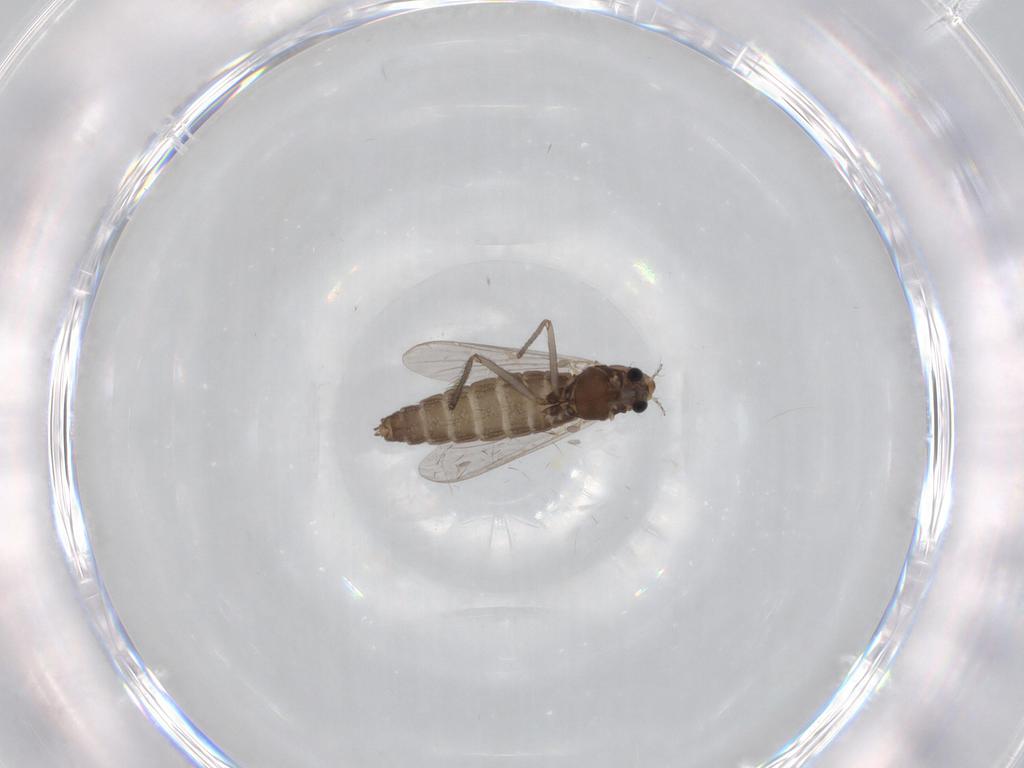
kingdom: Animalia
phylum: Arthropoda
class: Insecta
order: Diptera
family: Chironomidae
